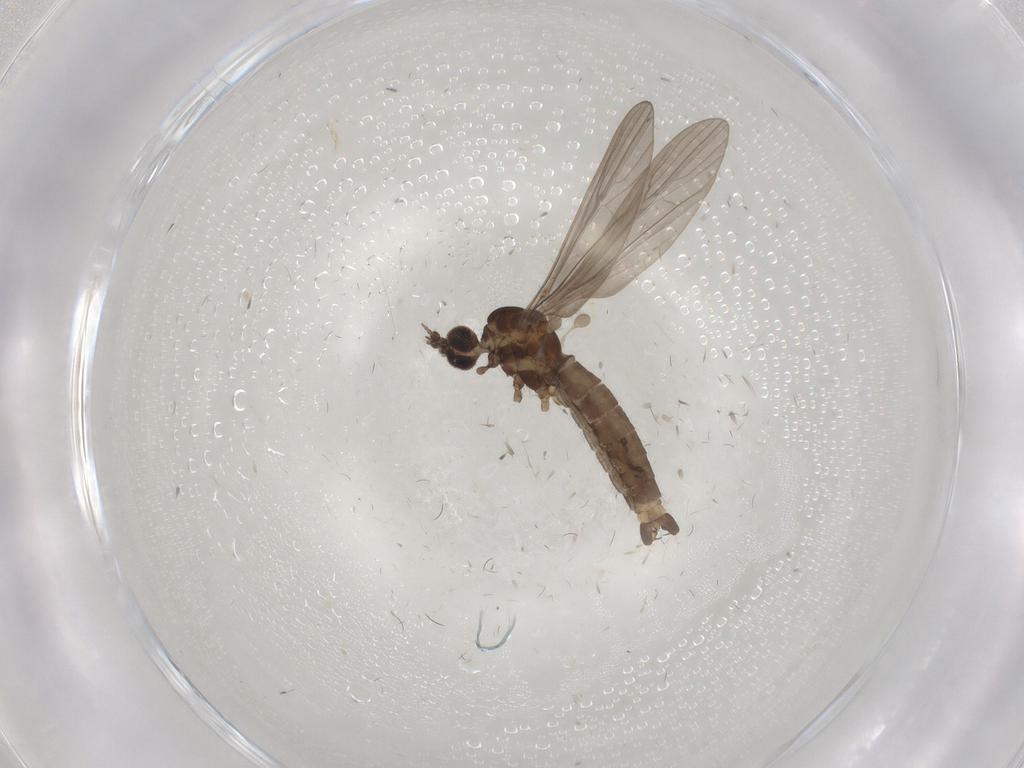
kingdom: Animalia
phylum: Arthropoda
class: Insecta
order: Diptera
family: Limoniidae
